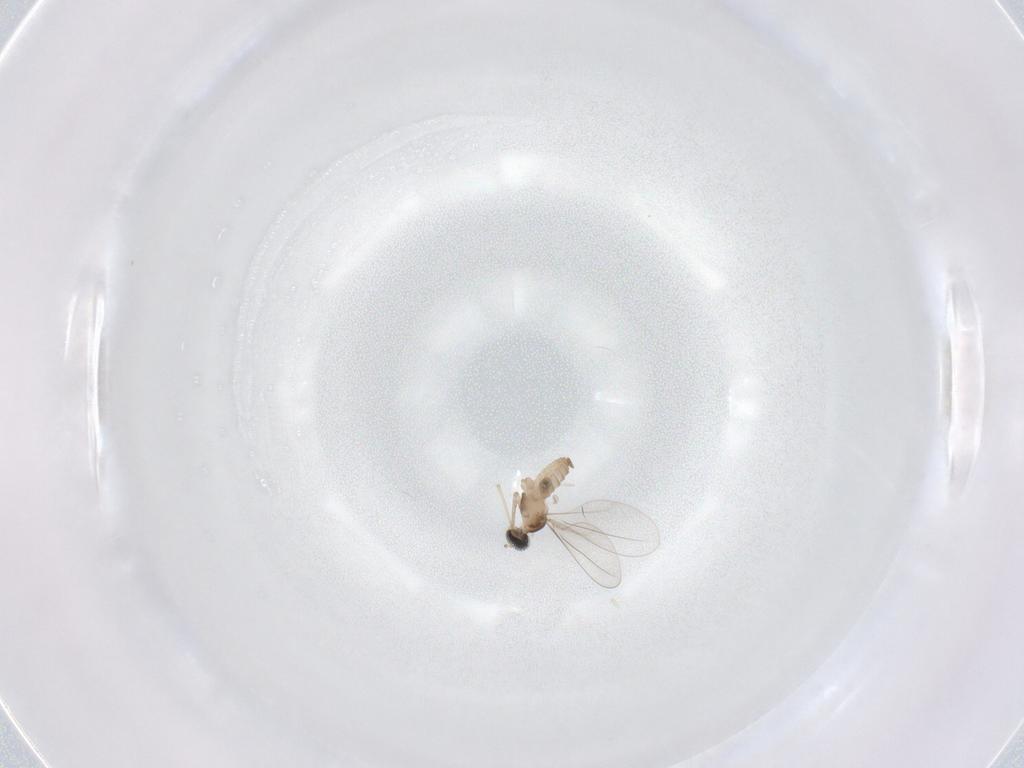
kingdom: Animalia
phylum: Arthropoda
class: Insecta
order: Diptera
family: Cecidomyiidae
